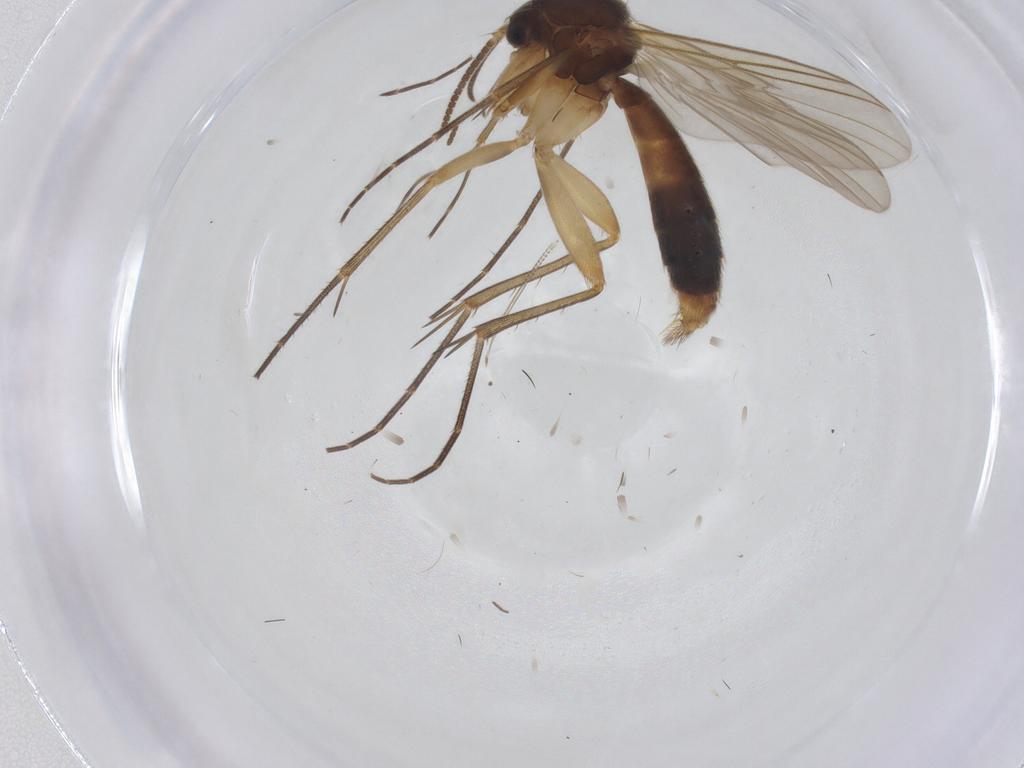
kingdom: Animalia
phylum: Arthropoda
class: Insecta
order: Diptera
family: Chironomidae
